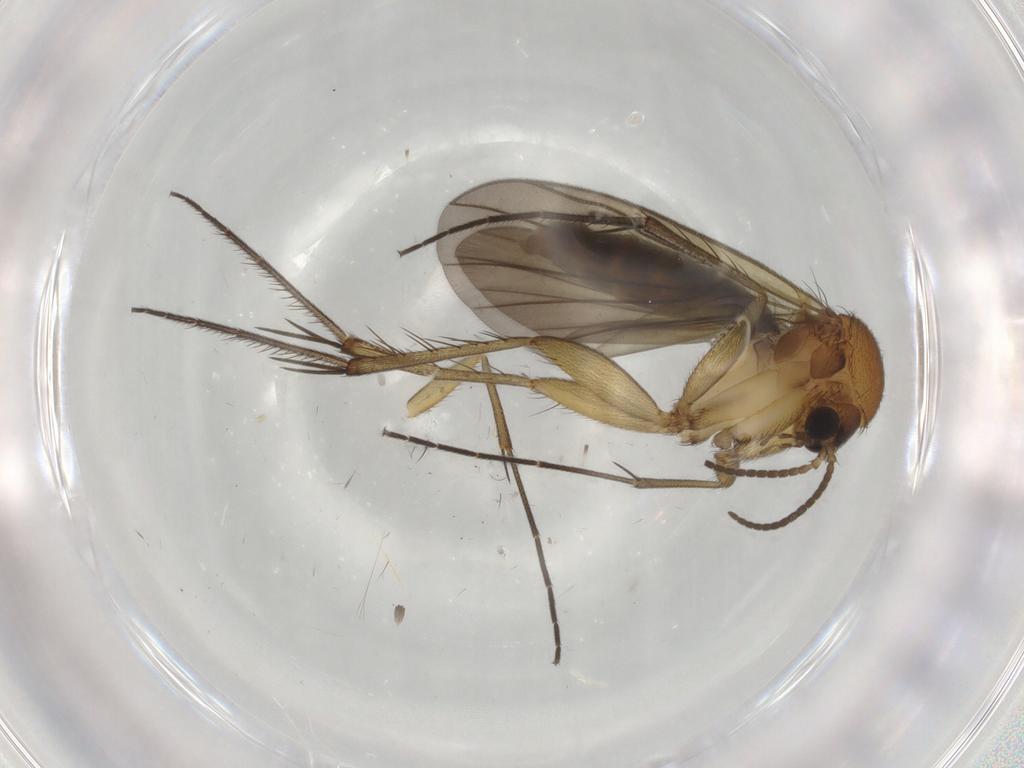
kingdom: Animalia
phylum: Arthropoda
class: Insecta
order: Diptera
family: Mycetophilidae
